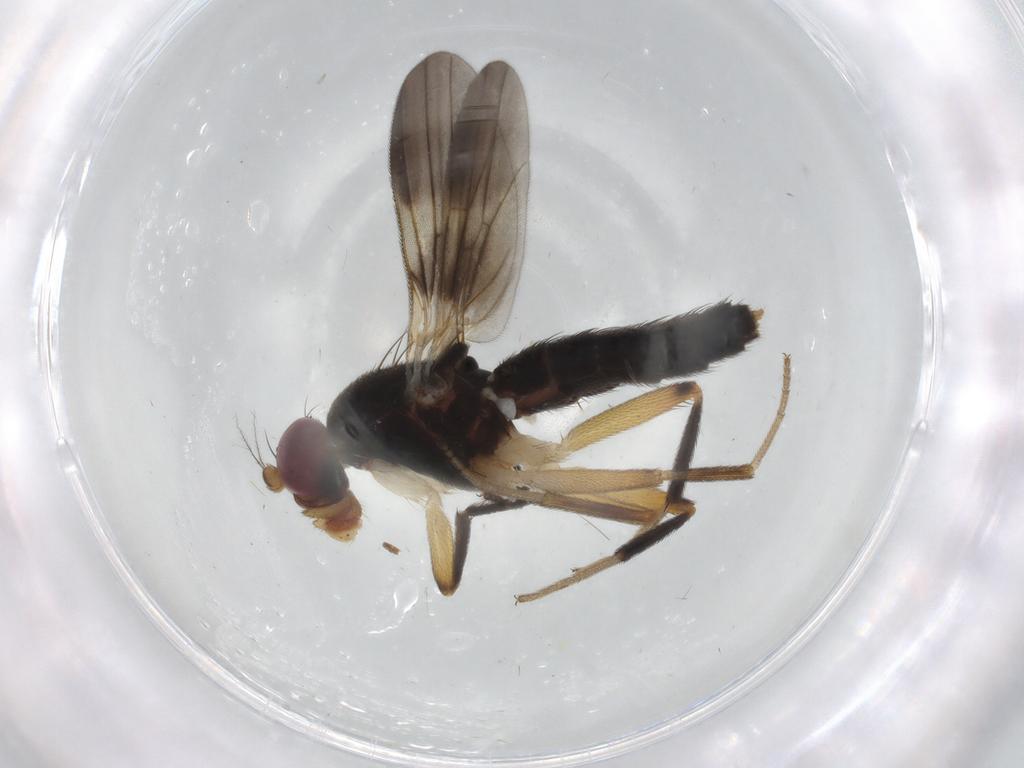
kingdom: Animalia
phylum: Arthropoda
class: Insecta
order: Diptera
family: Clusiidae
